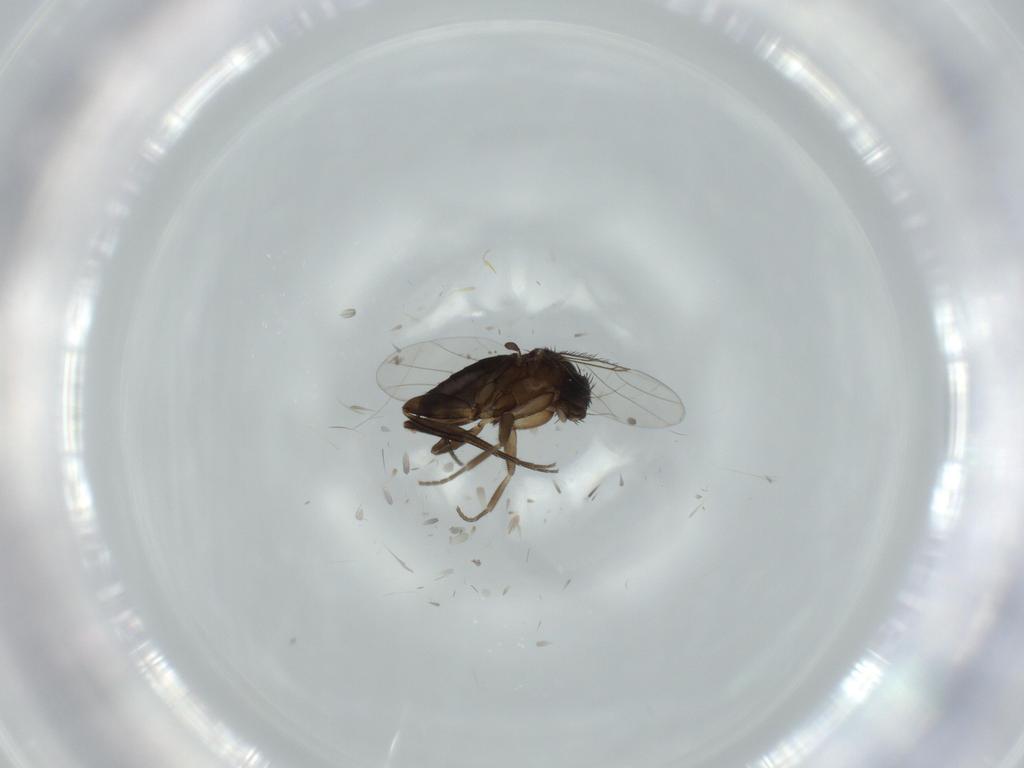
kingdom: Animalia
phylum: Arthropoda
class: Insecta
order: Diptera
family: Phoridae
